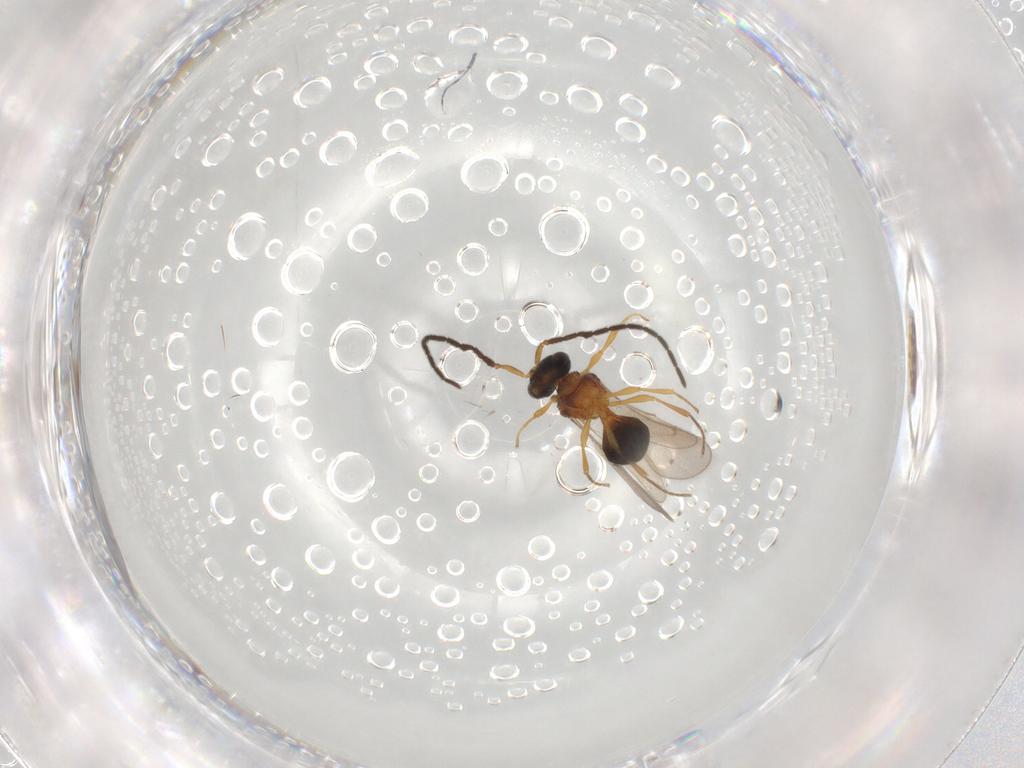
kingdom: Animalia
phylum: Arthropoda
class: Insecta
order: Hymenoptera
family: Scelionidae
